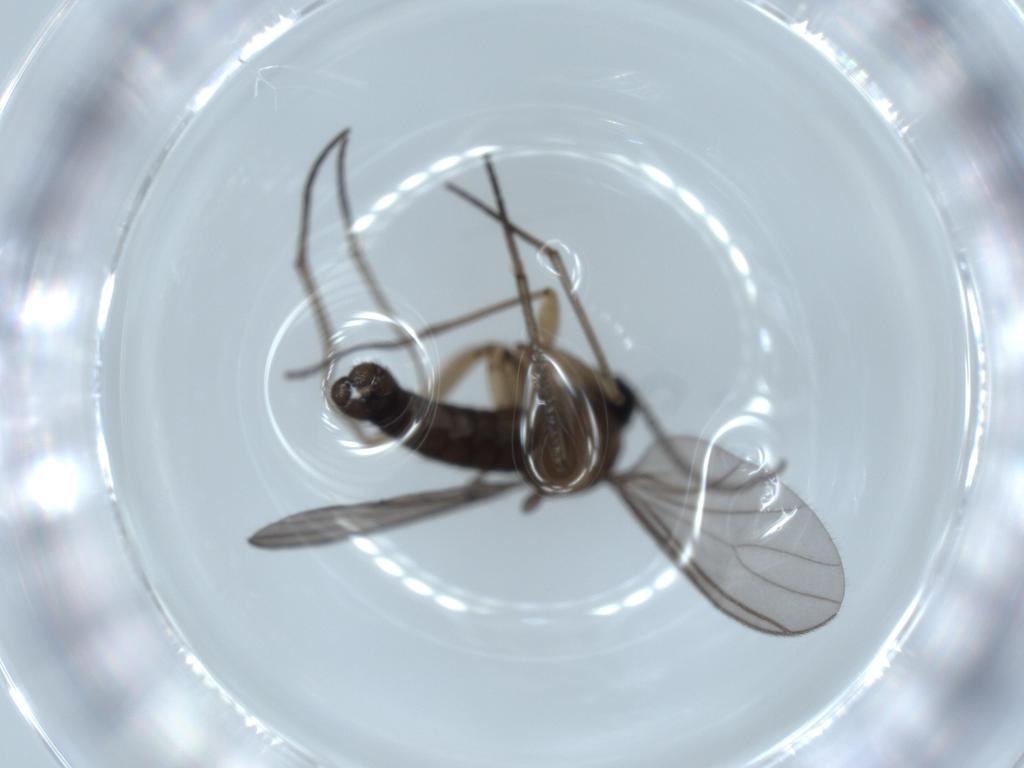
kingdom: Animalia
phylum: Arthropoda
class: Insecta
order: Diptera
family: Sciaridae
